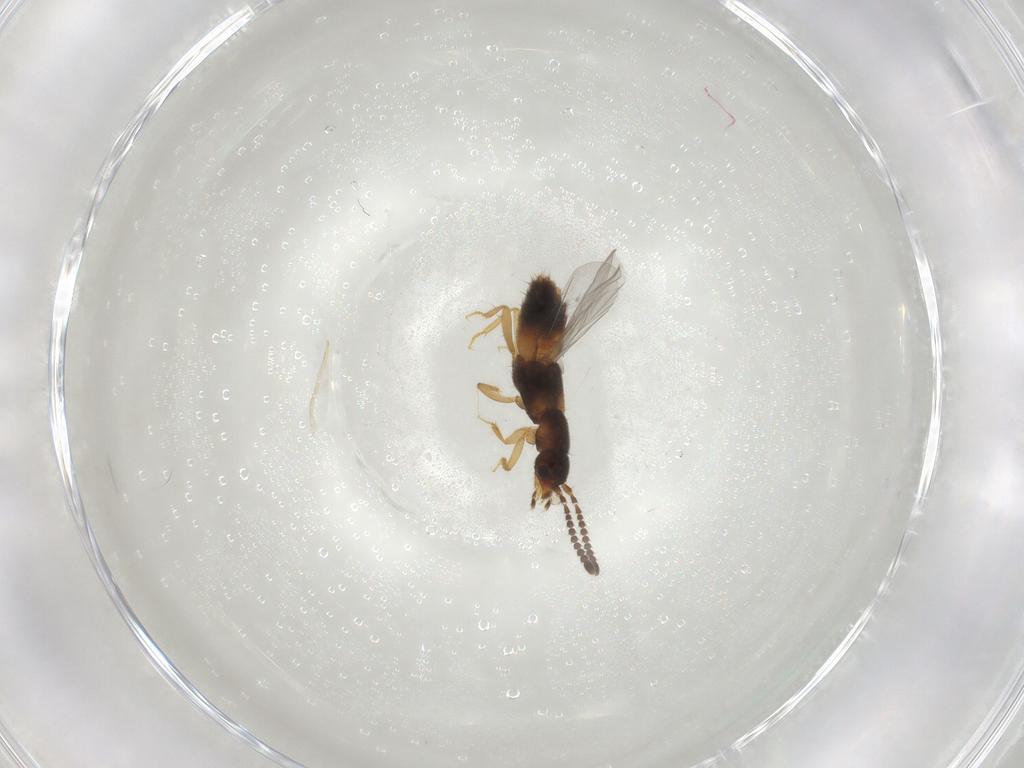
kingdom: Animalia
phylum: Arthropoda
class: Insecta
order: Coleoptera
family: Staphylinidae
